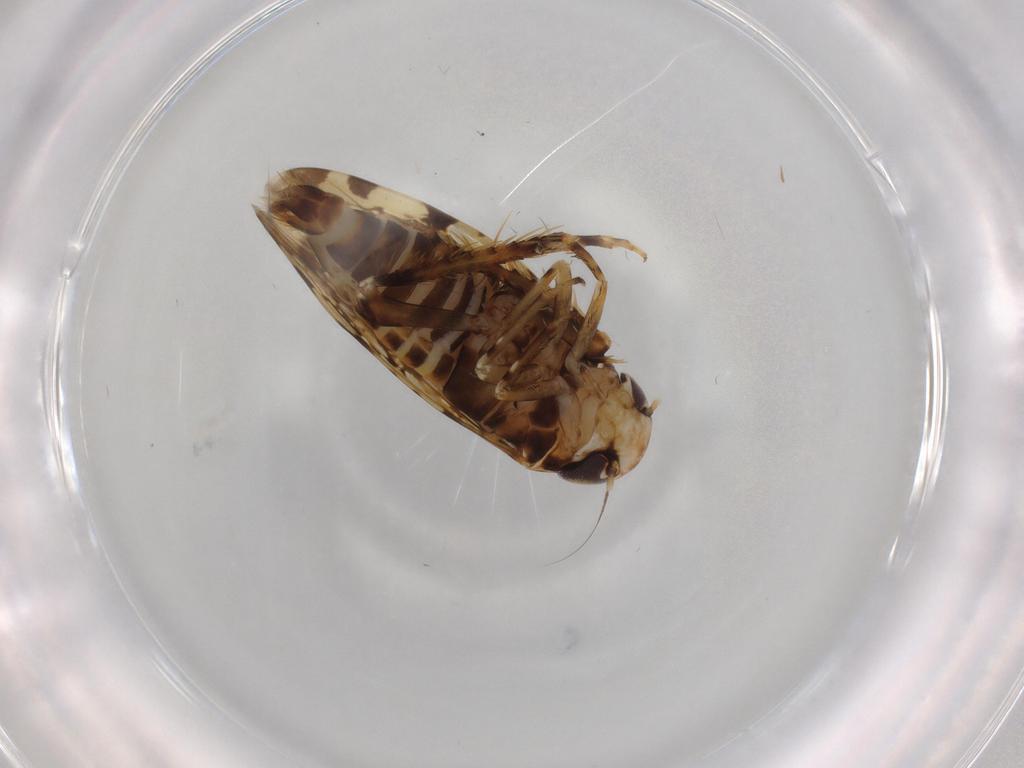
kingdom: Animalia
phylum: Arthropoda
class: Insecta
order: Hemiptera
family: Cicadellidae
